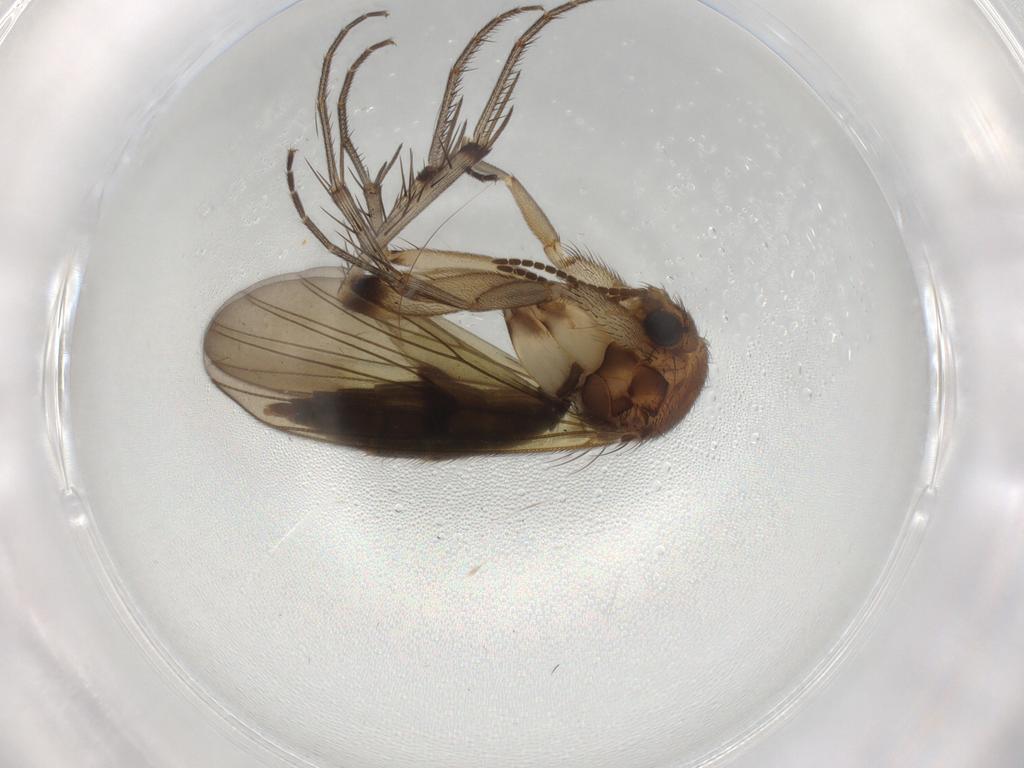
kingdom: Animalia
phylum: Arthropoda
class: Insecta
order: Diptera
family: Mycetophilidae
